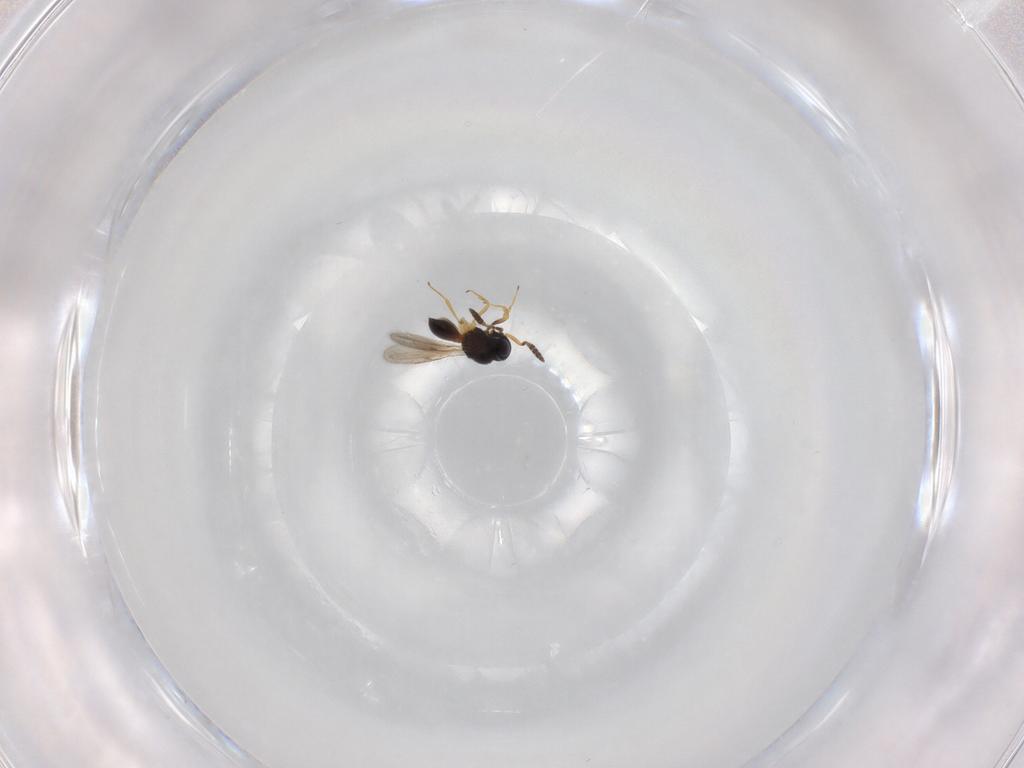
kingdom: Animalia
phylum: Arthropoda
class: Insecta
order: Hymenoptera
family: Scelionidae
